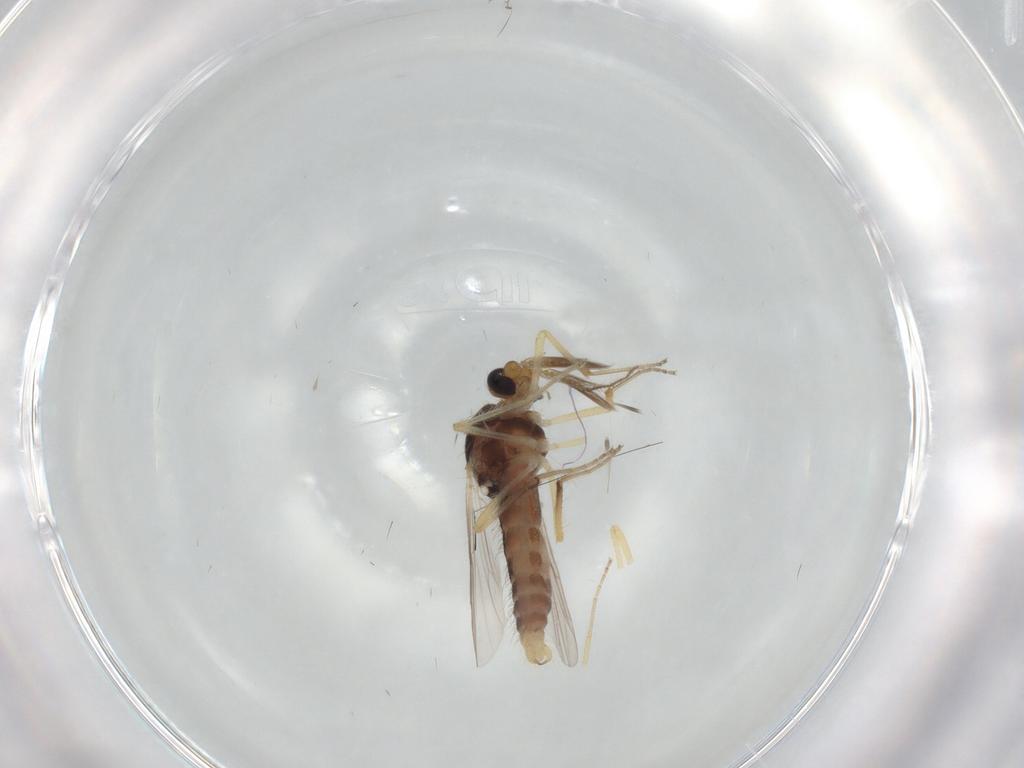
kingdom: Animalia
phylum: Arthropoda
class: Insecta
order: Diptera
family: Ceratopogonidae
